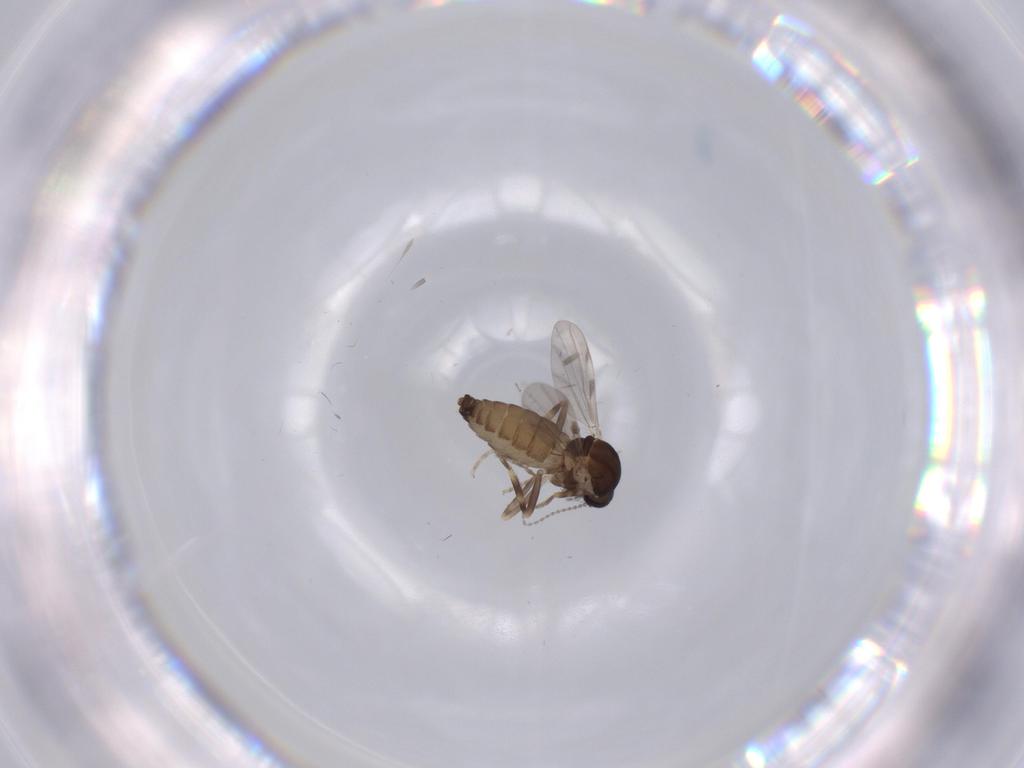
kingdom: Animalia
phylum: Arthropoda
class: Insecta
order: Diptera
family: Ceratopogonidae
